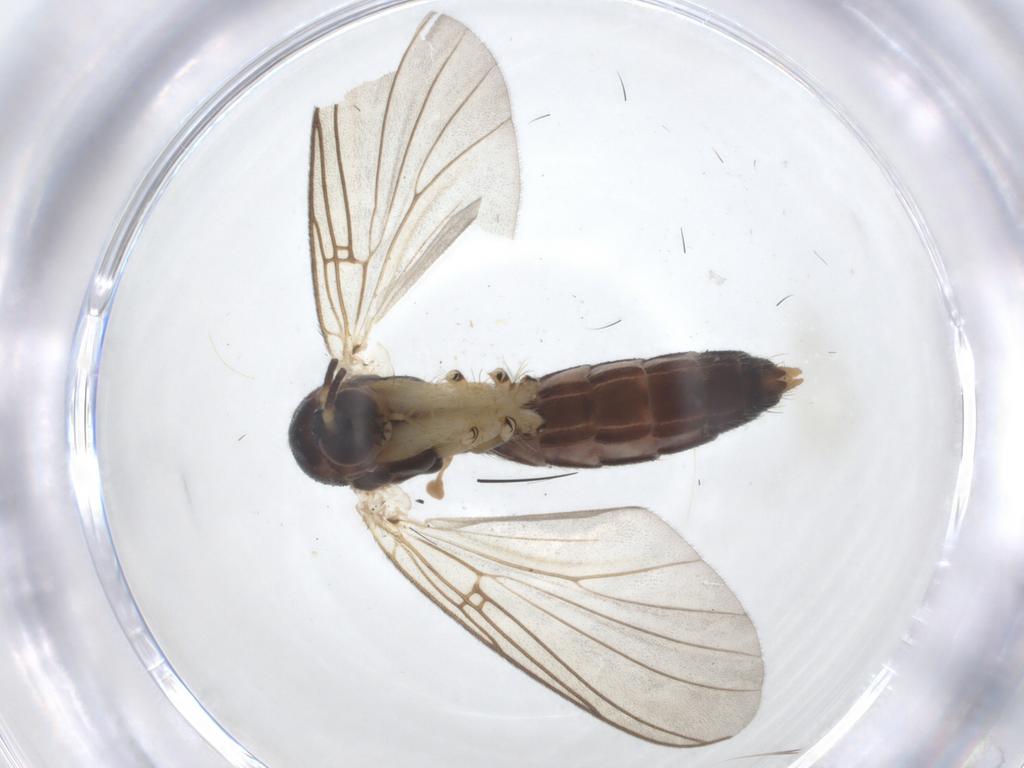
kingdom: Animalia
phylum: Arthropoda
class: Insecta
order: Diptera
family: Mycetophilidae
